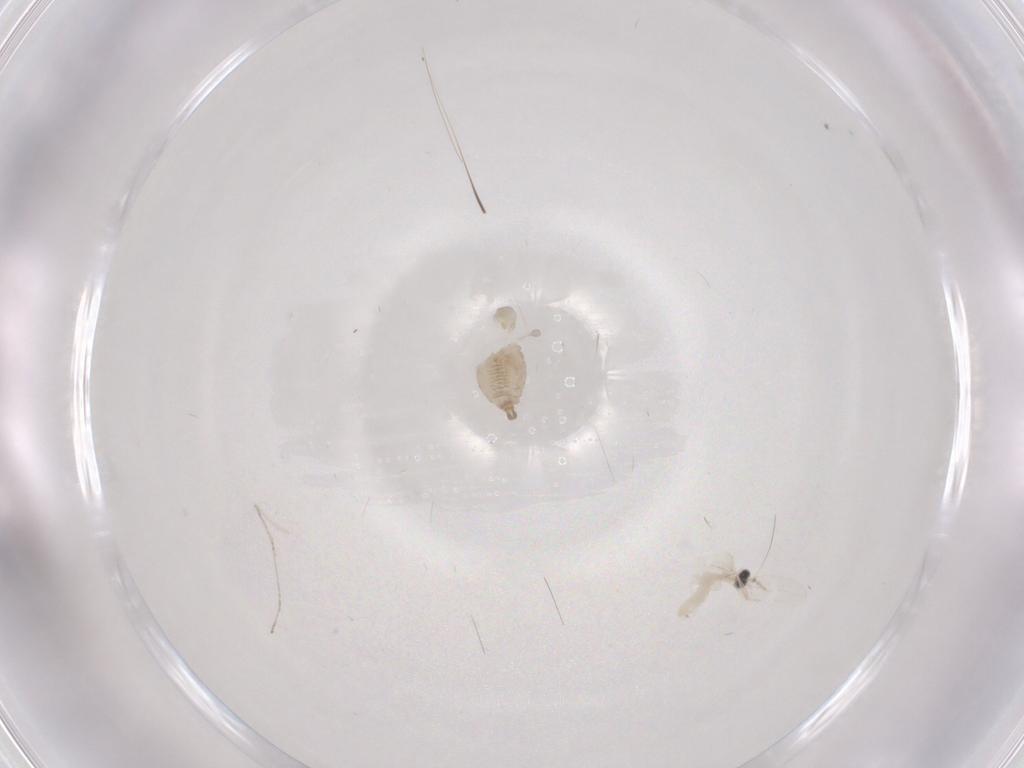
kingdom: Animalia
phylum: Arthropoda
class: Insecta
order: Diptera
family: Cecidomyiidae
